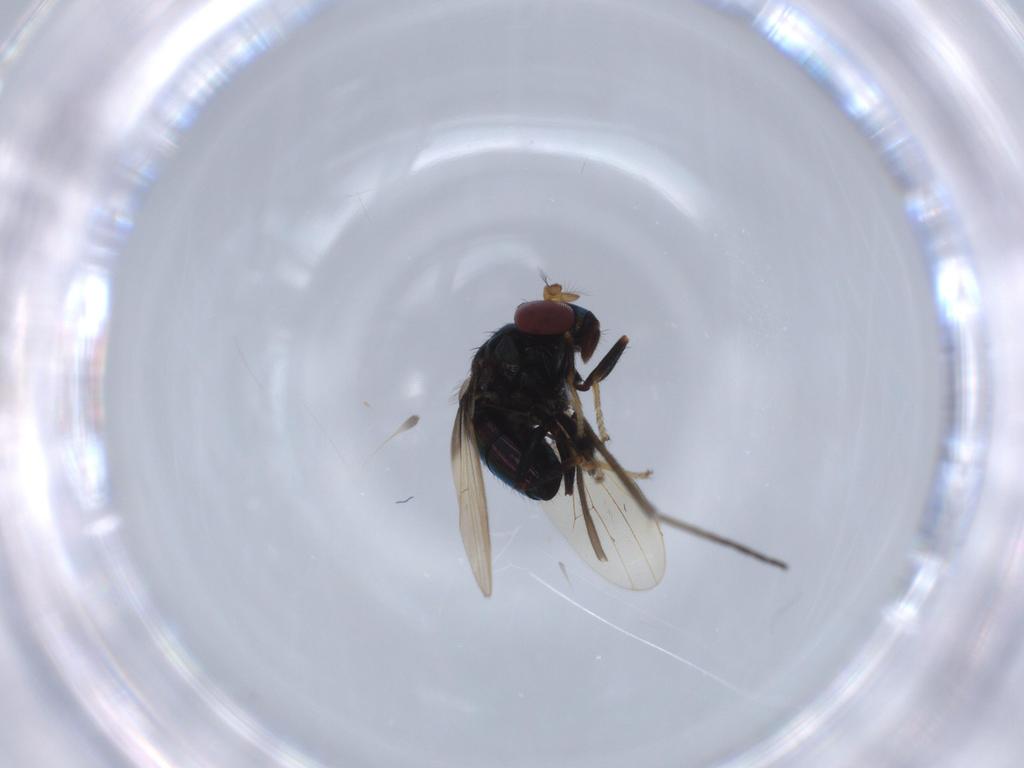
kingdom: Animalia
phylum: Arthropoda
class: Insecta
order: Diptera
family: Ephydridae
